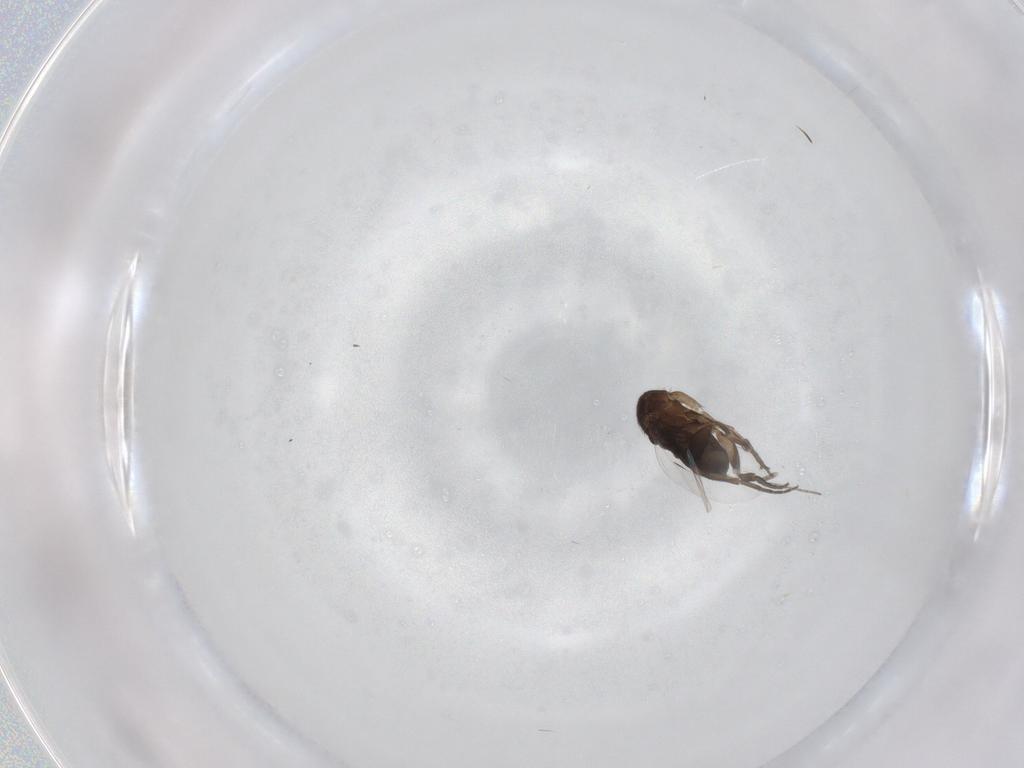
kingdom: Animalia
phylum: Arthropoda
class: Insecta
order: Diptera
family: Phoridae
